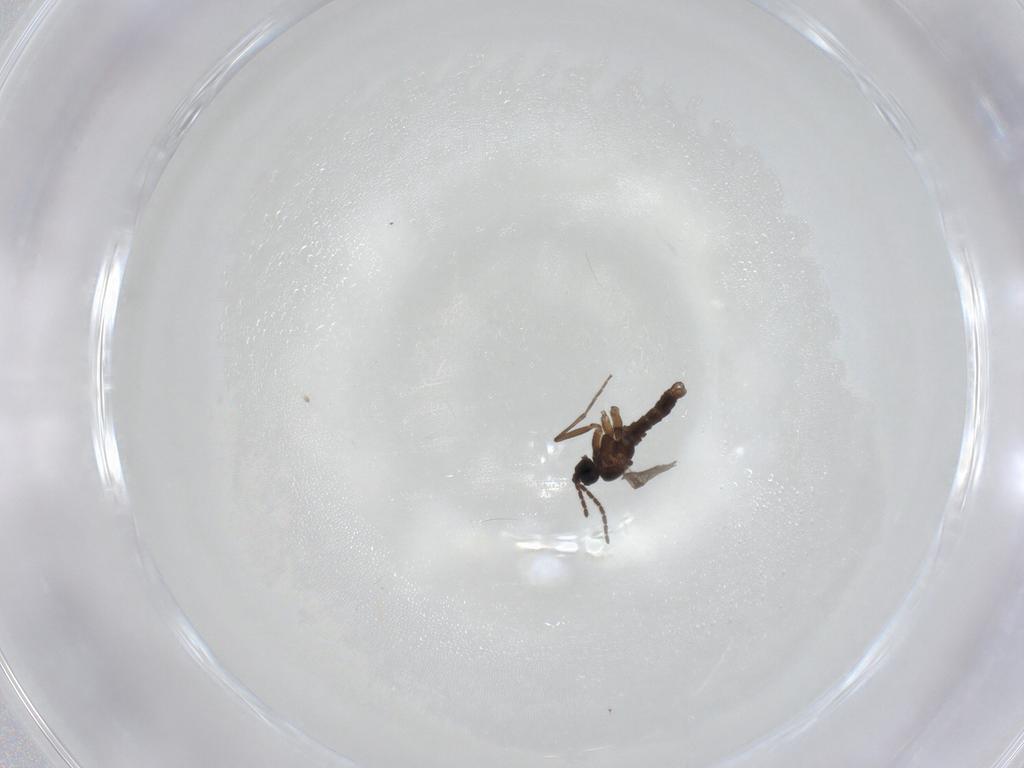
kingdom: Animalia
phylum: Arthropoda
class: Insecta
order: Diptera
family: Sciaridae
